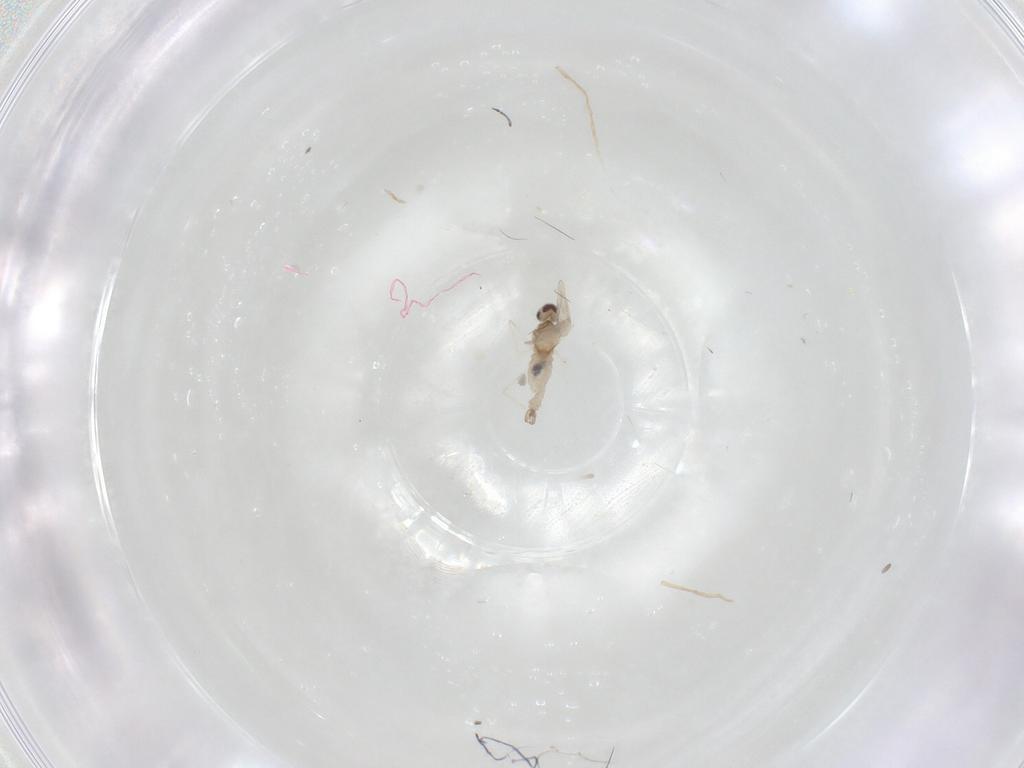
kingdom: Animalia
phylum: Arthropoda
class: Insecta
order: Diptera
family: Cecidomyiidae
